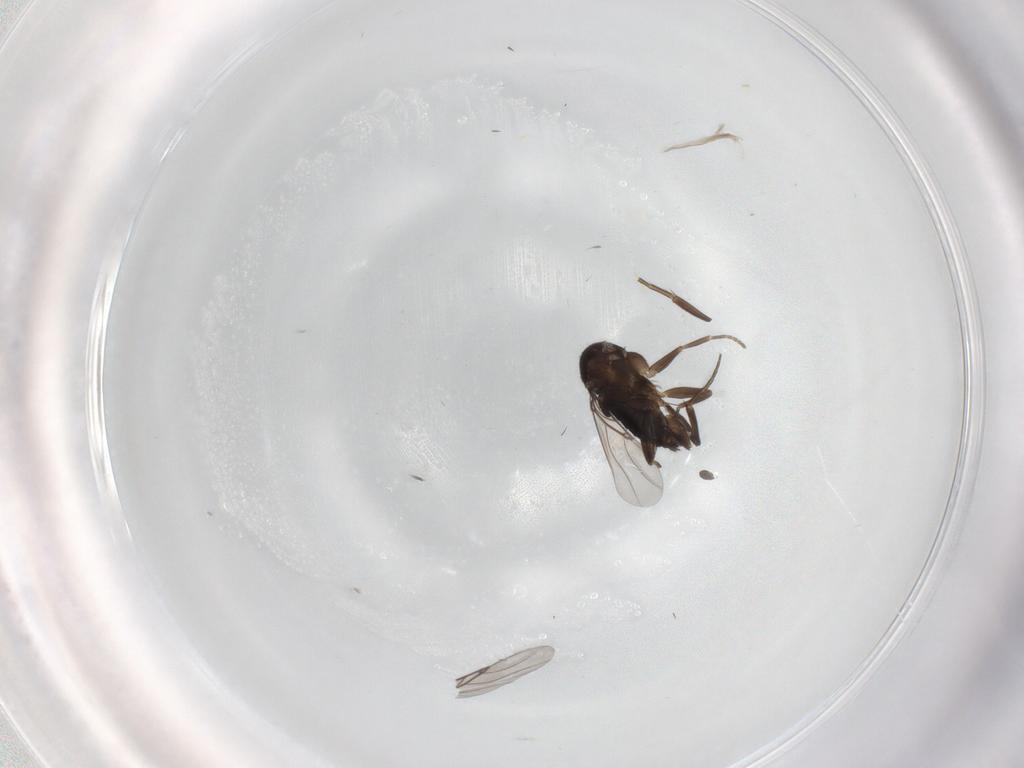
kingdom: Animalia
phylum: Arthropoda
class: Insecta
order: Diptera
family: Phoridae
